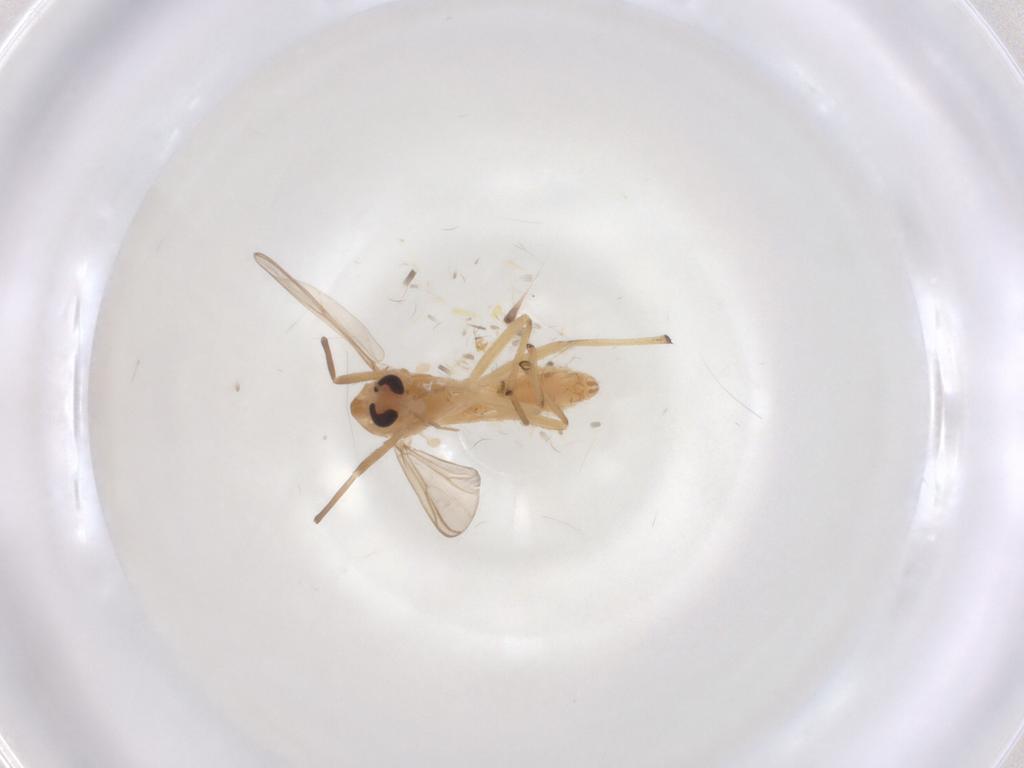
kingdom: Animalia
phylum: Arthropoda
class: Insecta
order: Diptera
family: Chironomidae
